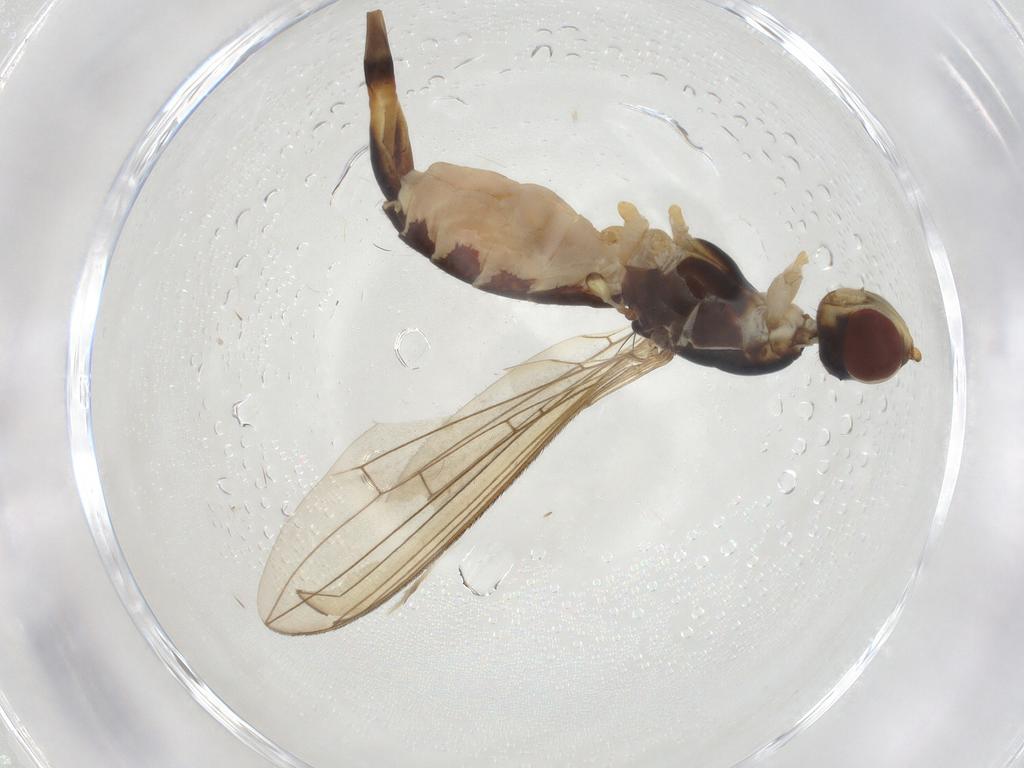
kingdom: Animalia
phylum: Arthropoda
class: Insecta
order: Diptera
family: Micropezidae
